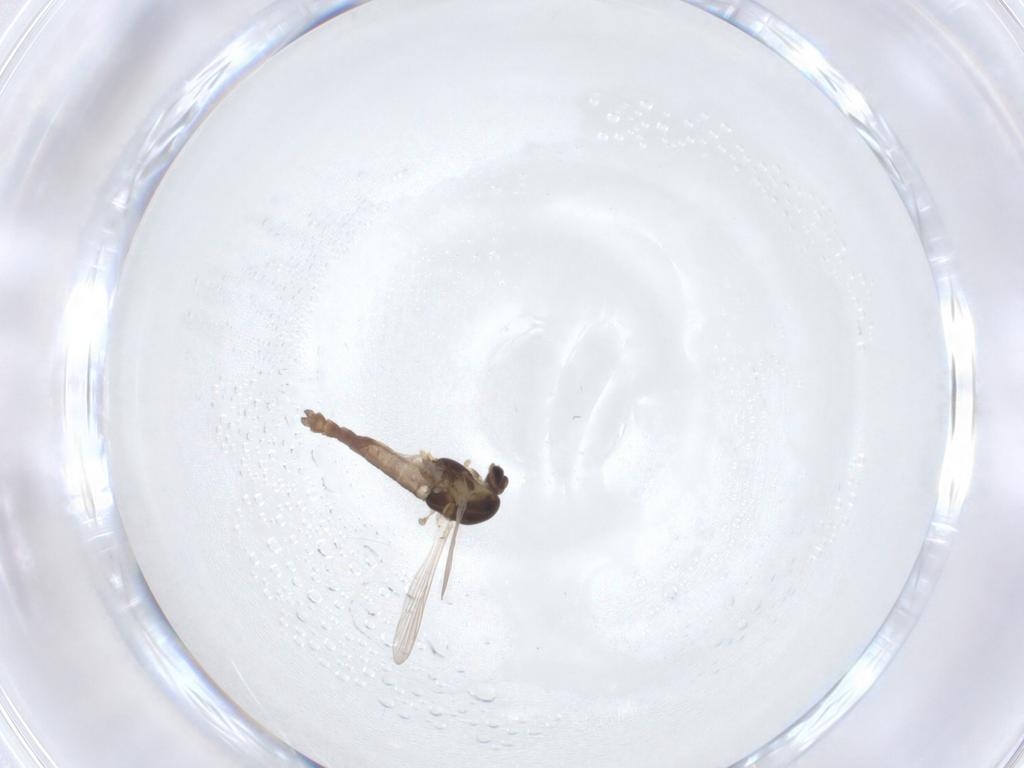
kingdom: Animalia
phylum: Arthropoda
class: Insecta
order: Diptera
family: Chironomidae
